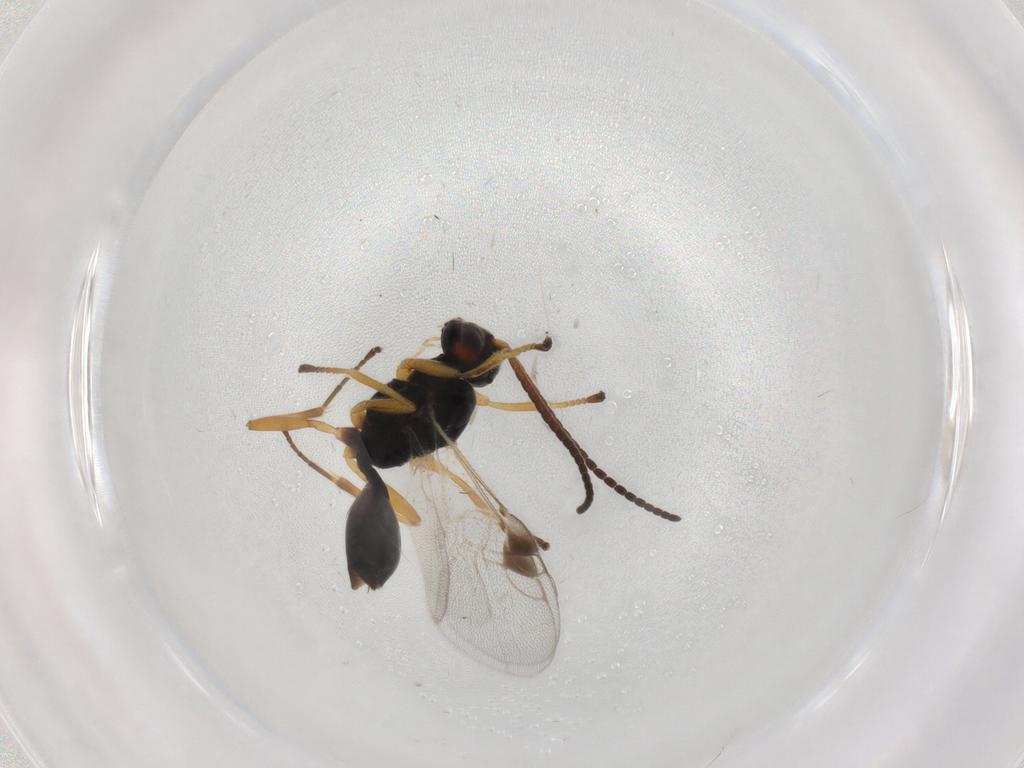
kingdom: Animalia
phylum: Arthropoda
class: Insecta
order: Hymenoptera
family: Braconidae
